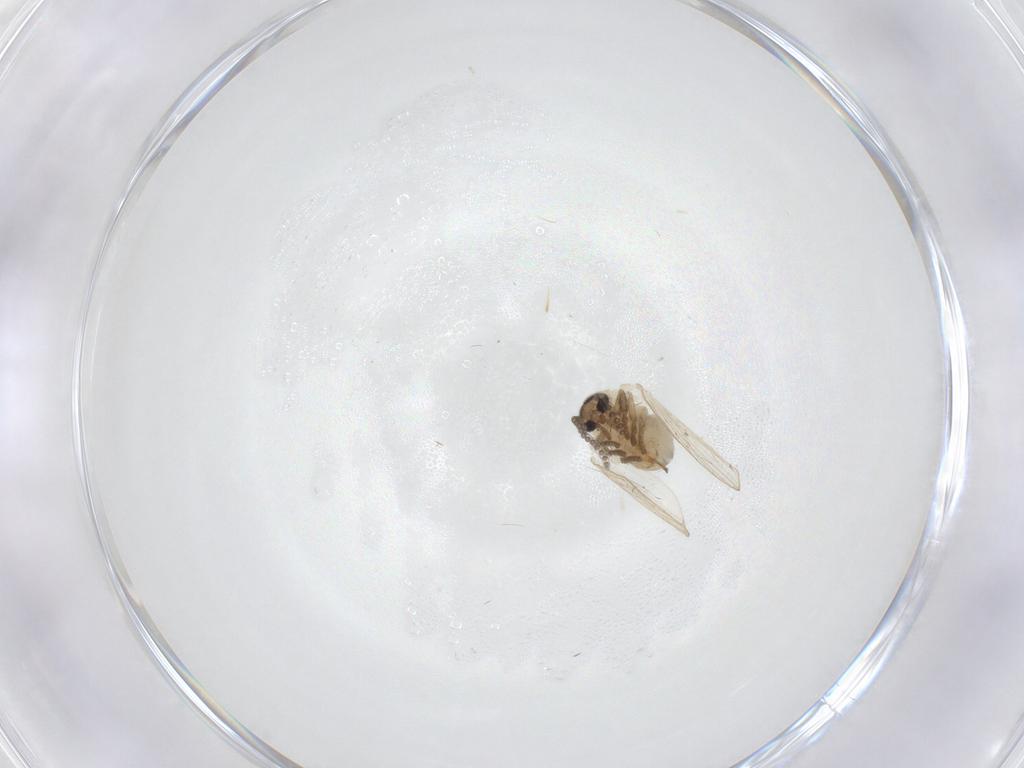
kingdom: Animalia
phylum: Arthropoda
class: Insecta
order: Diptera
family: Psychodidae
